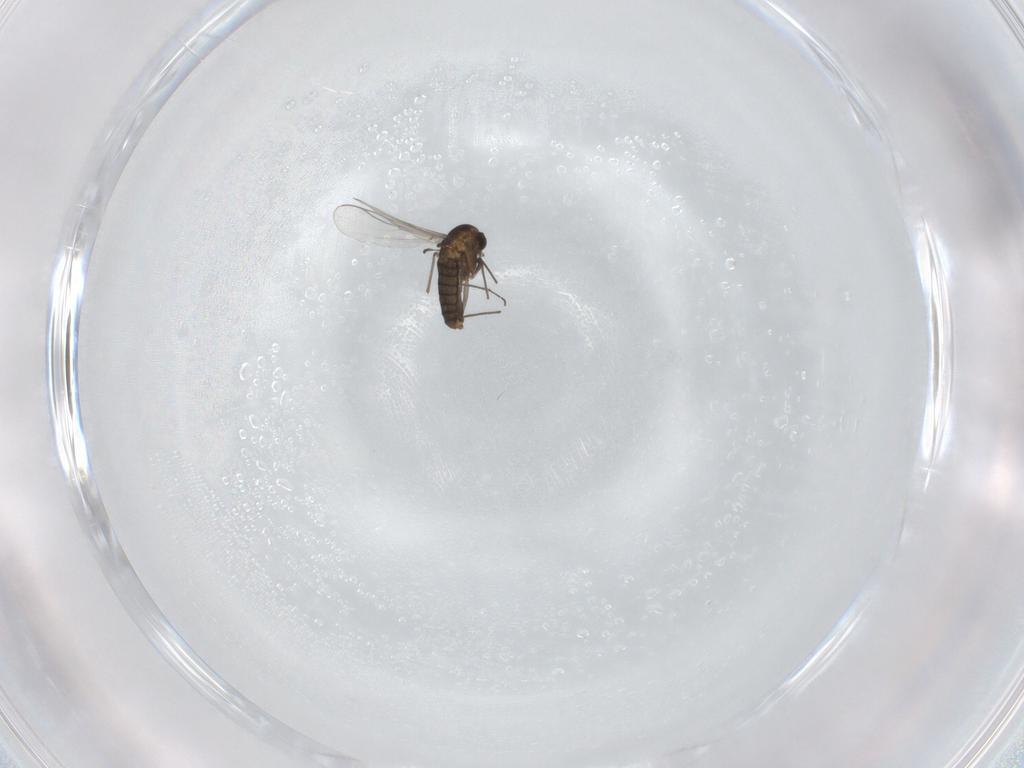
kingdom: Animalia
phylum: Arthropoda
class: Insecta
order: Diptera
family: Chironomidae
